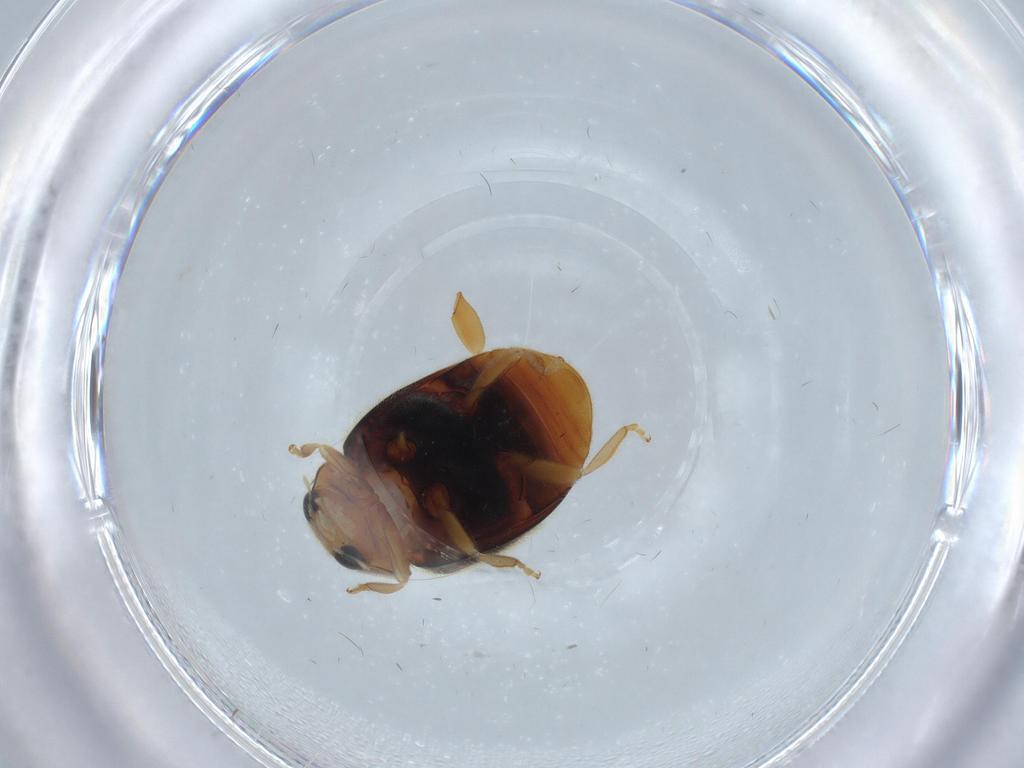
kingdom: Animalia
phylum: Arthropoda
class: Insecta
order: Coleoptera
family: Coccinellidae
